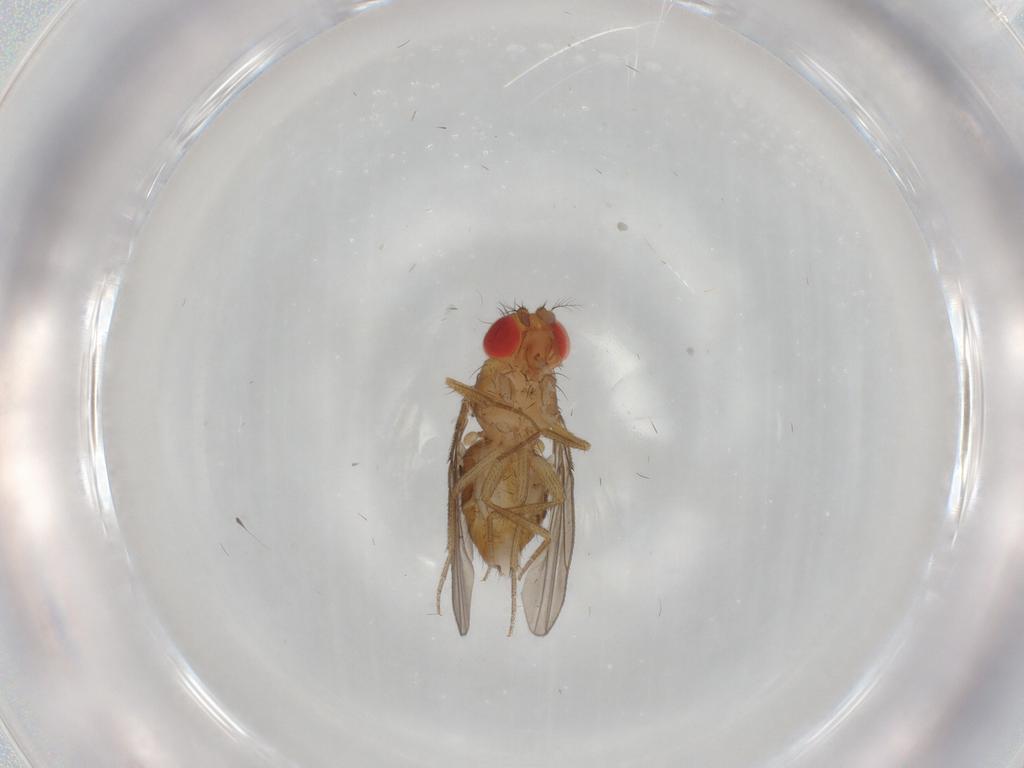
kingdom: Animalia
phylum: Arthropoda
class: Insecta
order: Diptera
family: Drosophilidae
